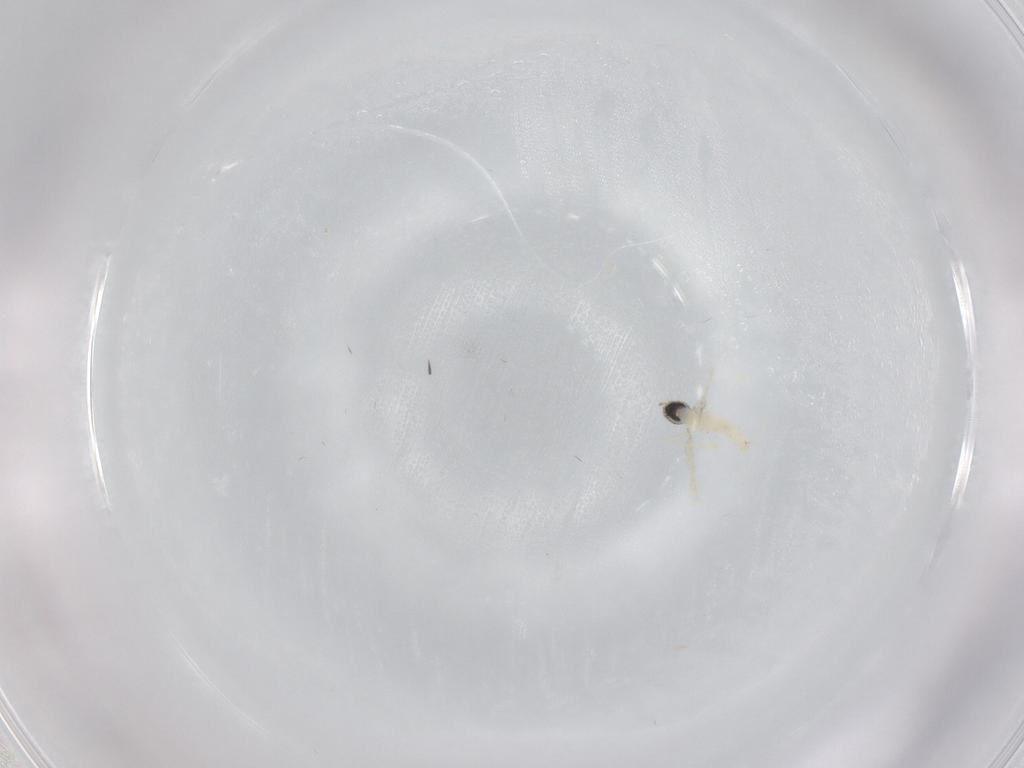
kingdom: Animalia
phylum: Arthropoda
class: Insecta
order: Diptera
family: Cecidomyiidae
